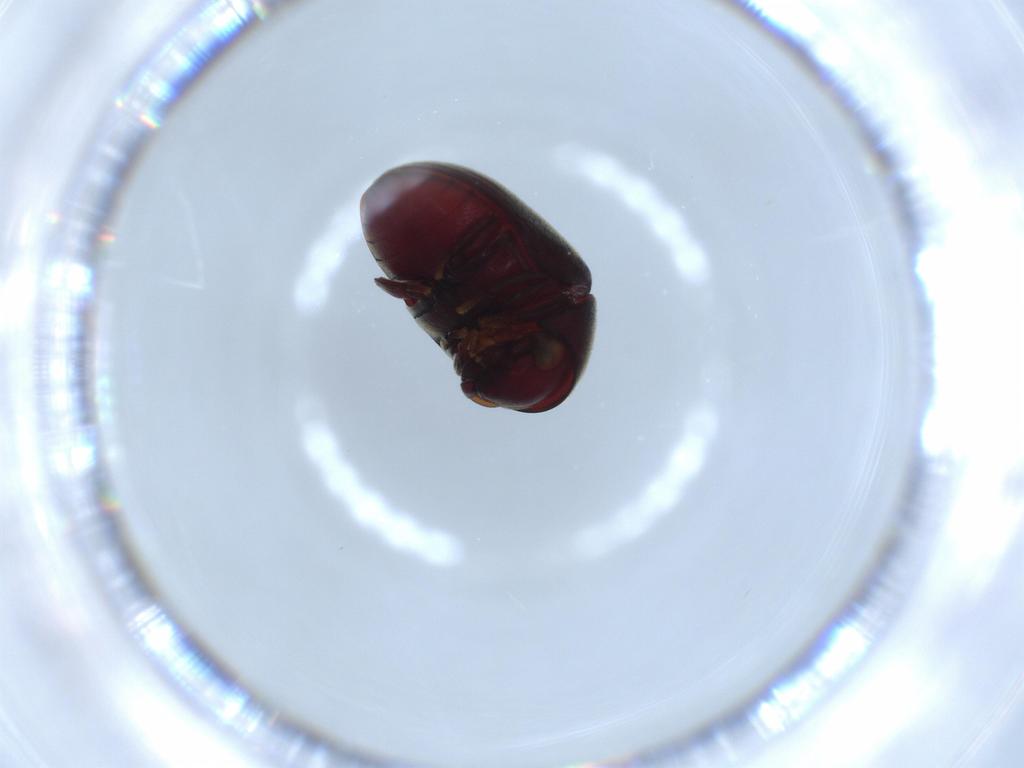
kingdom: Animalia
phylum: Arthropoda
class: Insecta
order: Coleoptera
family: Ptinidae
